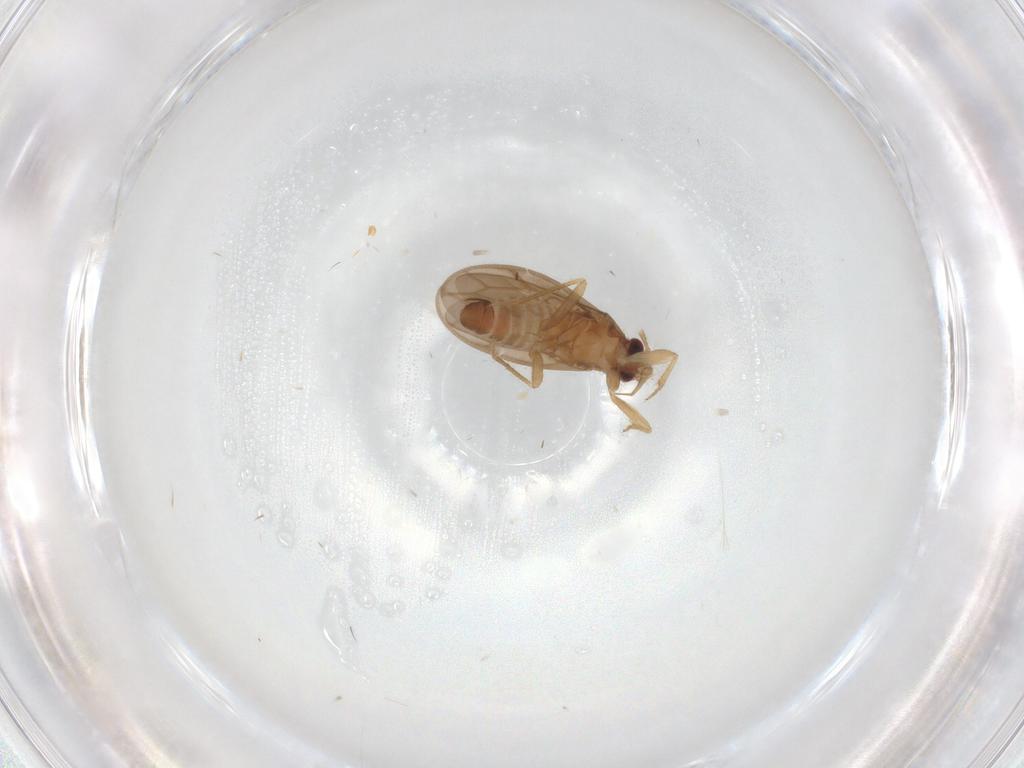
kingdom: Animalia
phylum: Arthropoda
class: Insecta
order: Hemiptera
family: Ceratocombidae
